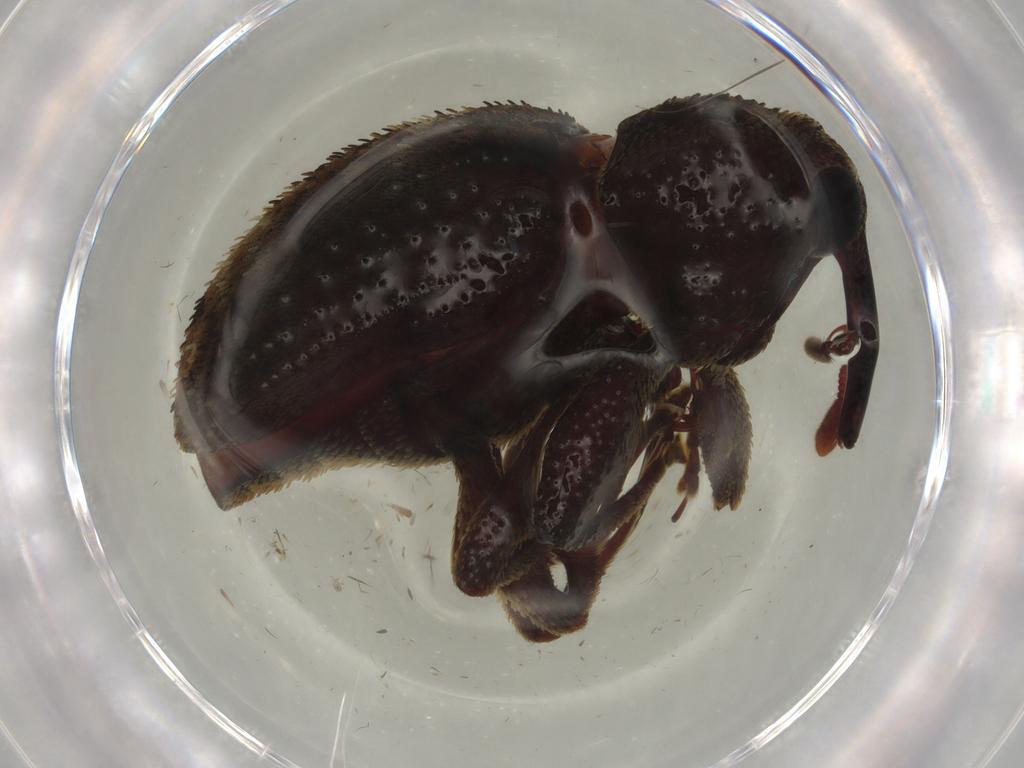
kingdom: Animalia
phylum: Arthropoda
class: Insecta
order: Coleoptera
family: Curculionidae
